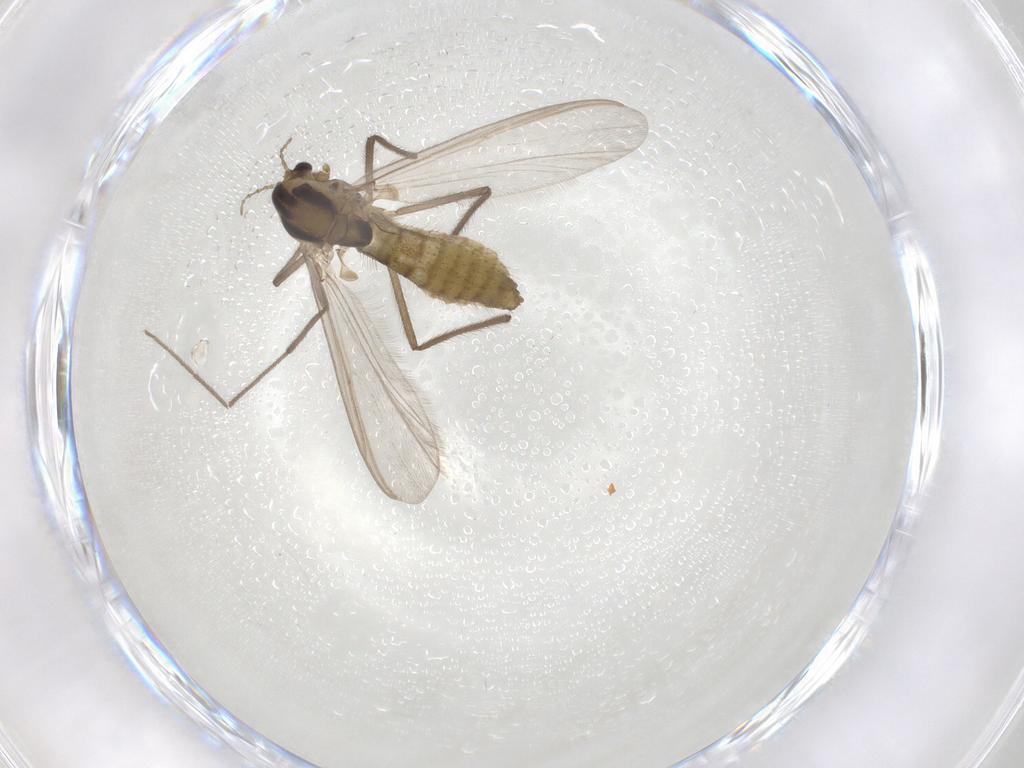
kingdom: Animalia
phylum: Arthropoda
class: Insecta
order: Diptera
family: Chironomidae
